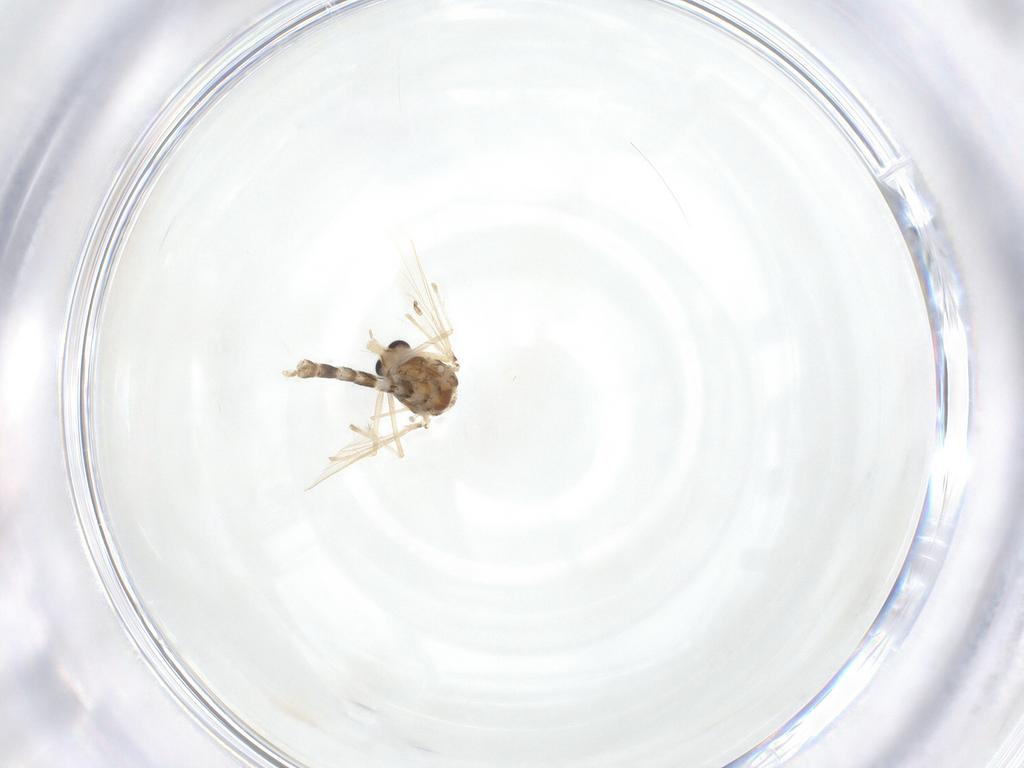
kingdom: Animalia
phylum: Arthropoda
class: Insecta
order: Diptera
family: Chironomidae
